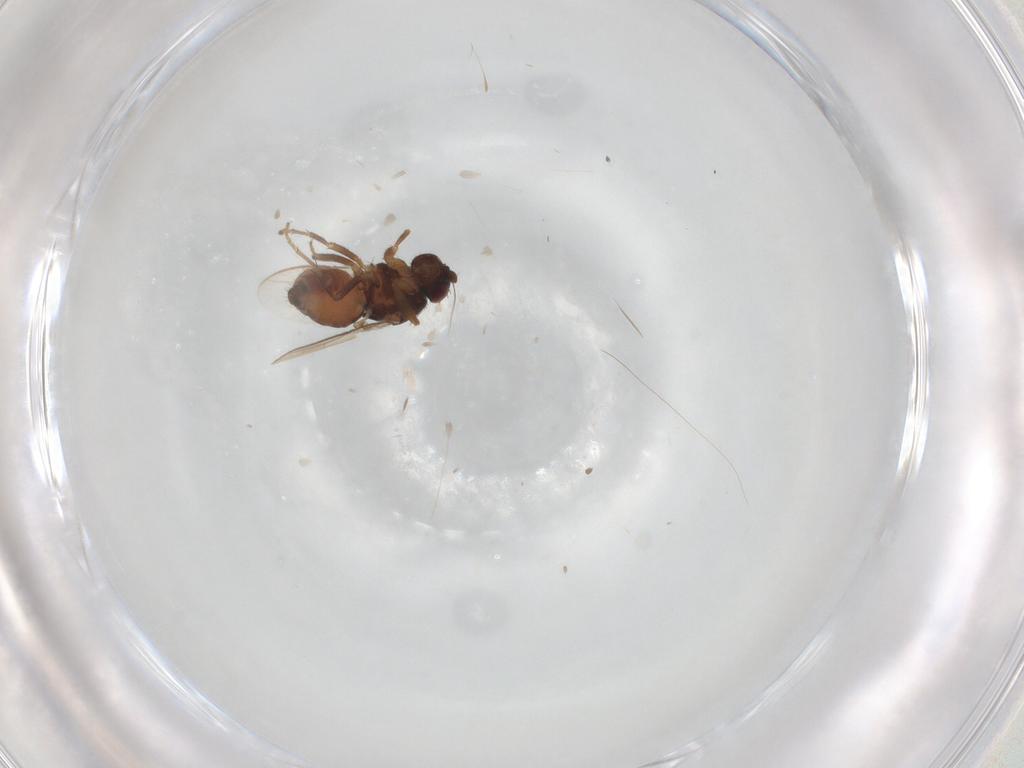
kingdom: Animalia
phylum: Arthropoda
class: Insecta
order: Diptera
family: Sphaeroceridae
